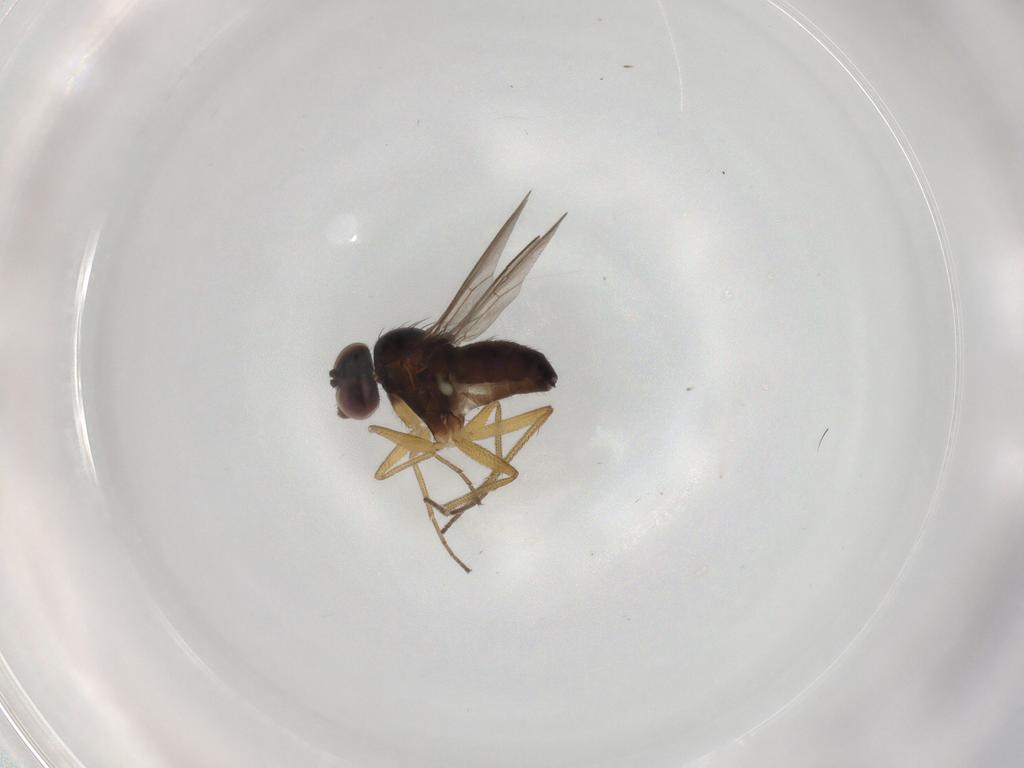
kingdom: Animalia
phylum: Arthropoda
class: Insecta
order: Diptera
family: Dolichopodidae
